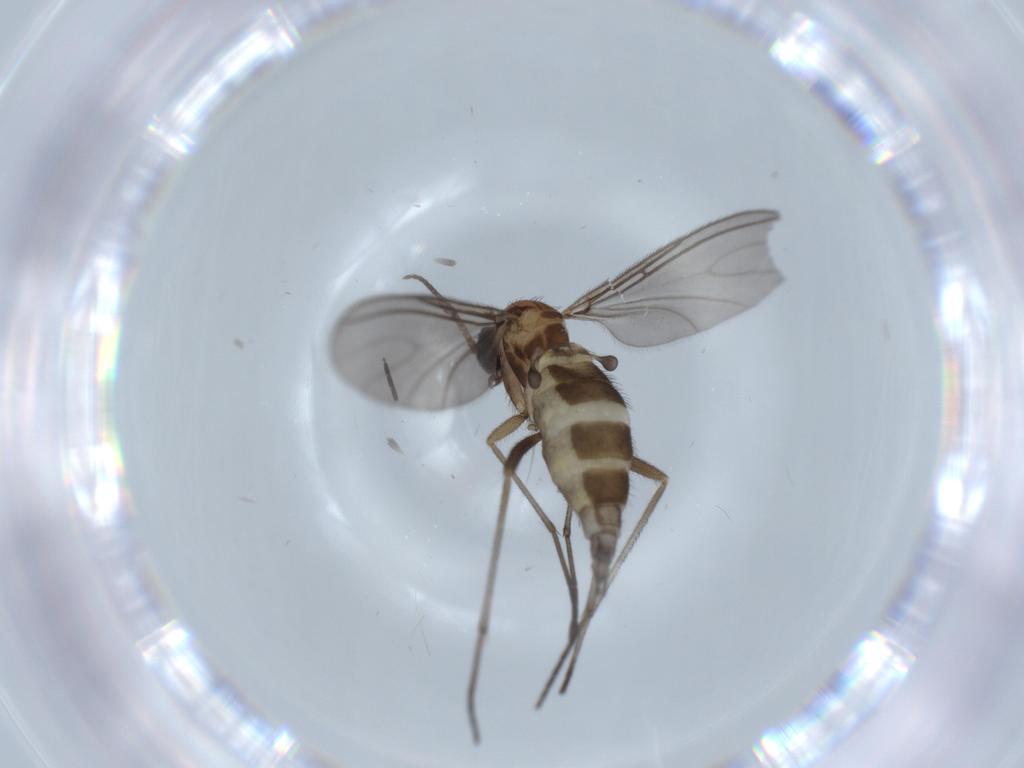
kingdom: Animalia
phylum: Arthropoda
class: Insecta
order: Diptera
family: Sciaridae
